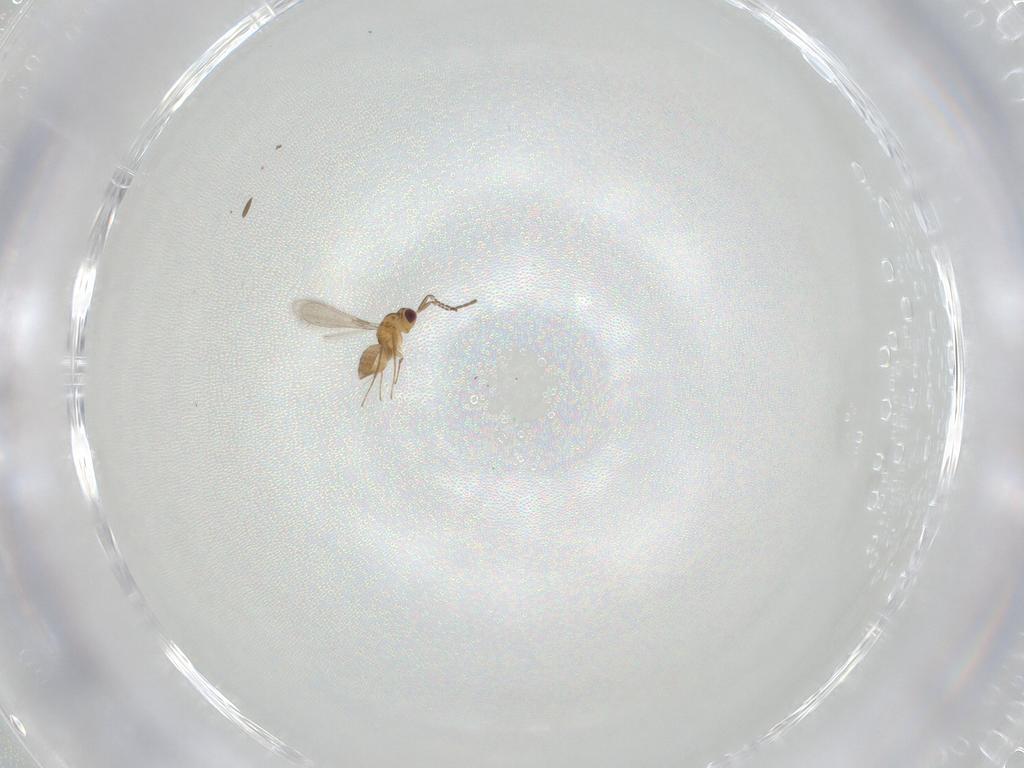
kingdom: Animalia
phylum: Arthropoda
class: Insecta
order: Hymenoptera
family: Mymaridae
